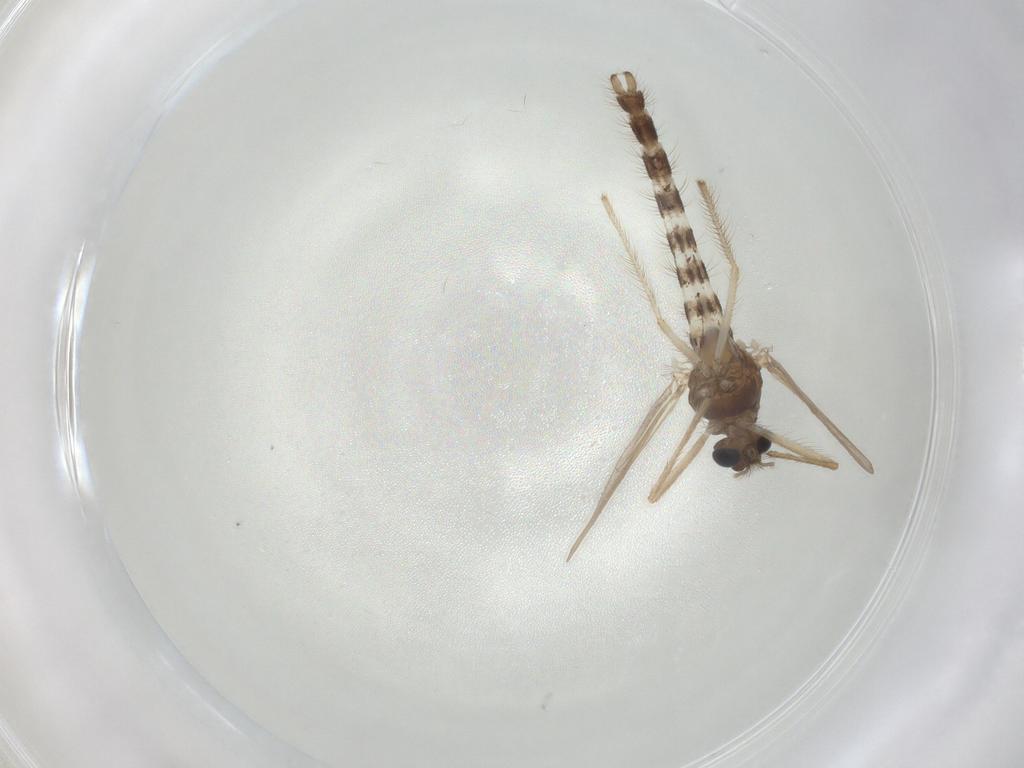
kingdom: Animalia
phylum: Arthropoda
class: Insecta
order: Diptera
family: Chironomidae
